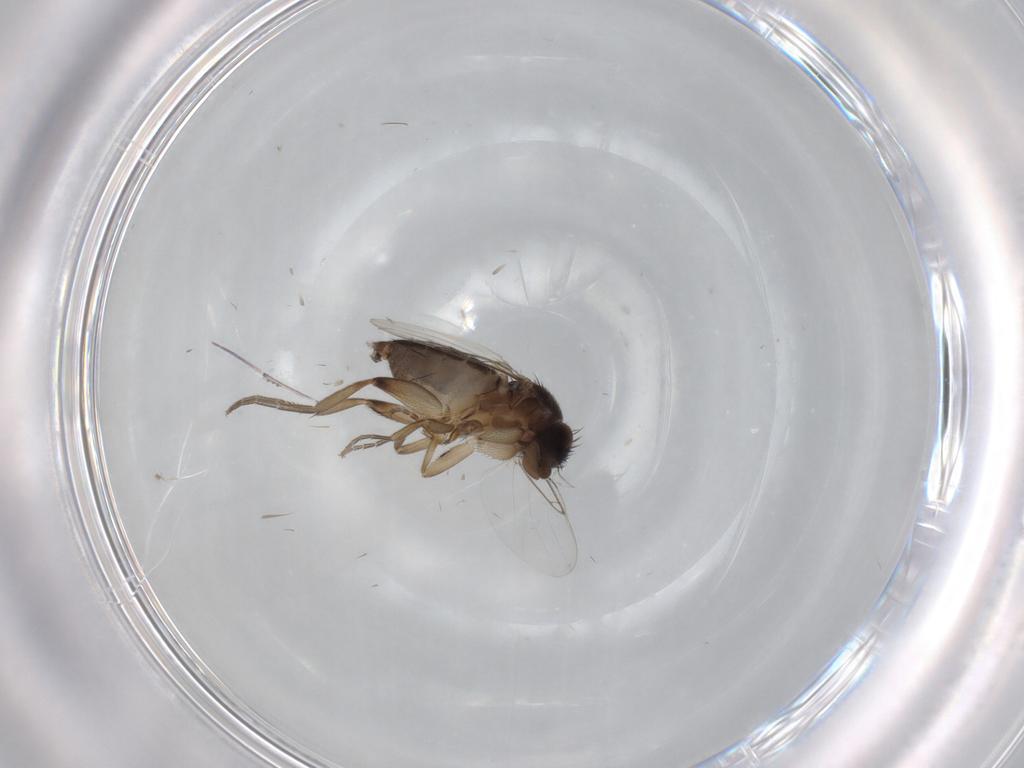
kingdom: Animalia
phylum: Arthropoda
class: Insecta
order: Diptera
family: Phoridae
